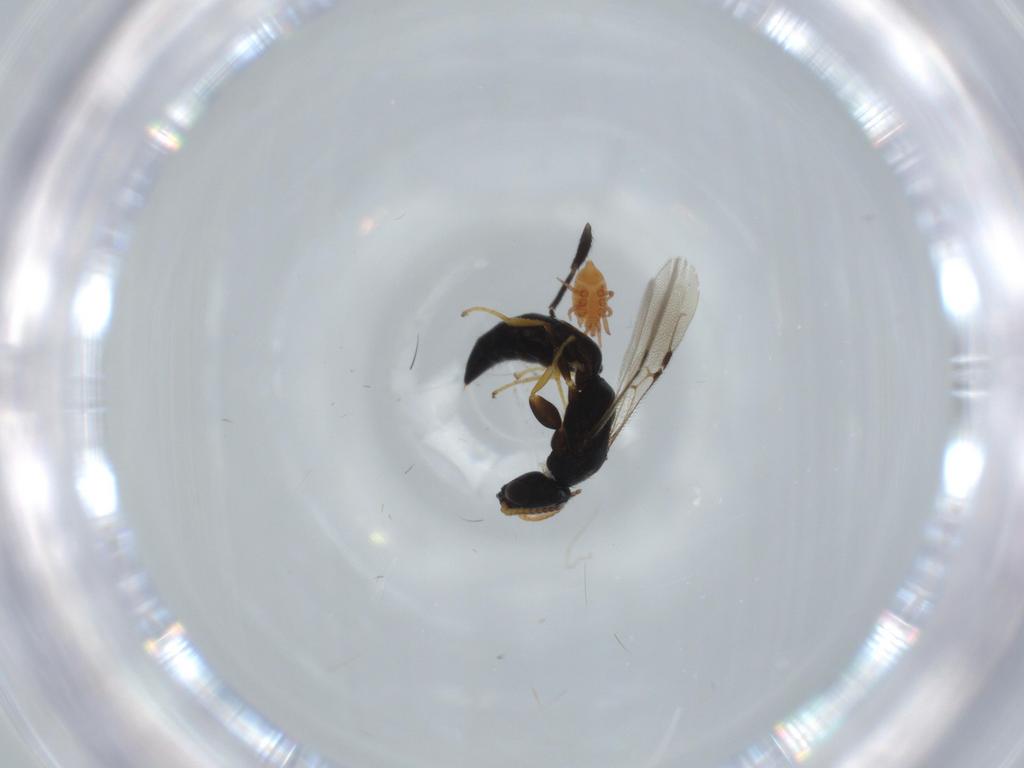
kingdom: Animalia
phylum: Arthropoda
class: Insecta
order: Hymenoptera
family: Bethylidae
